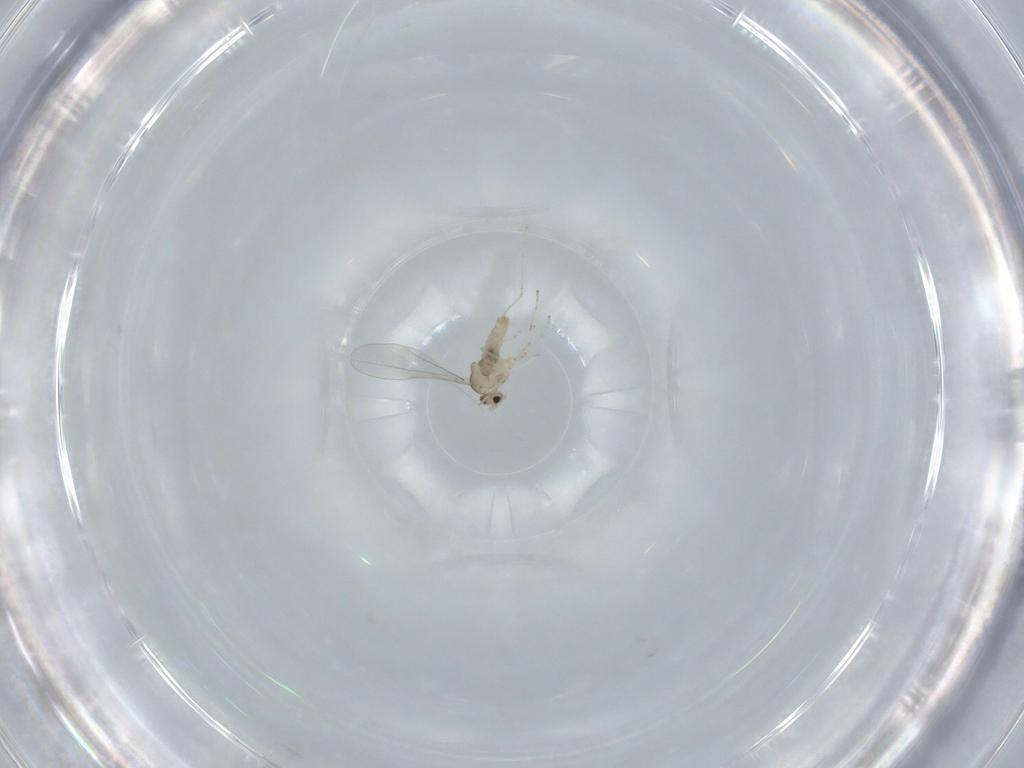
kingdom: Animalia
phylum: Arthropoda
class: Insecta
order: Diptera
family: Cecidomyiidae
